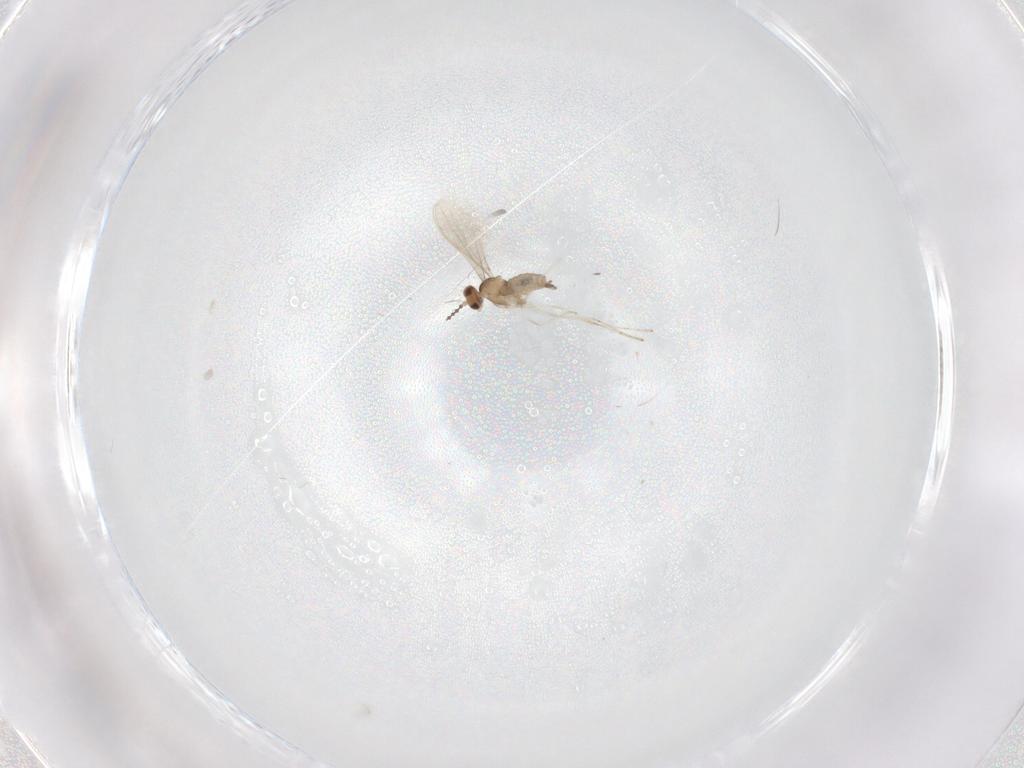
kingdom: Animalia
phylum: Arthropoda
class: Insecta
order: Diptera
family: Cecidomyiidae
